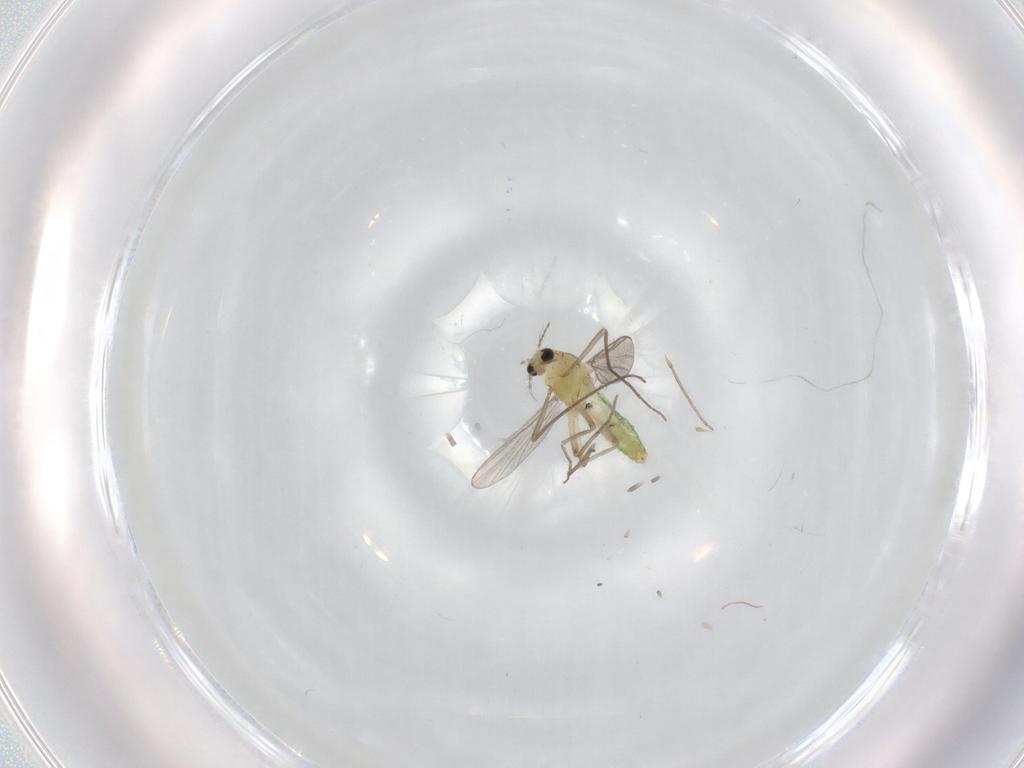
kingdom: Animalia
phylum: Arthropoda
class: Insecta
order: Diptera
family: Chironomidae
